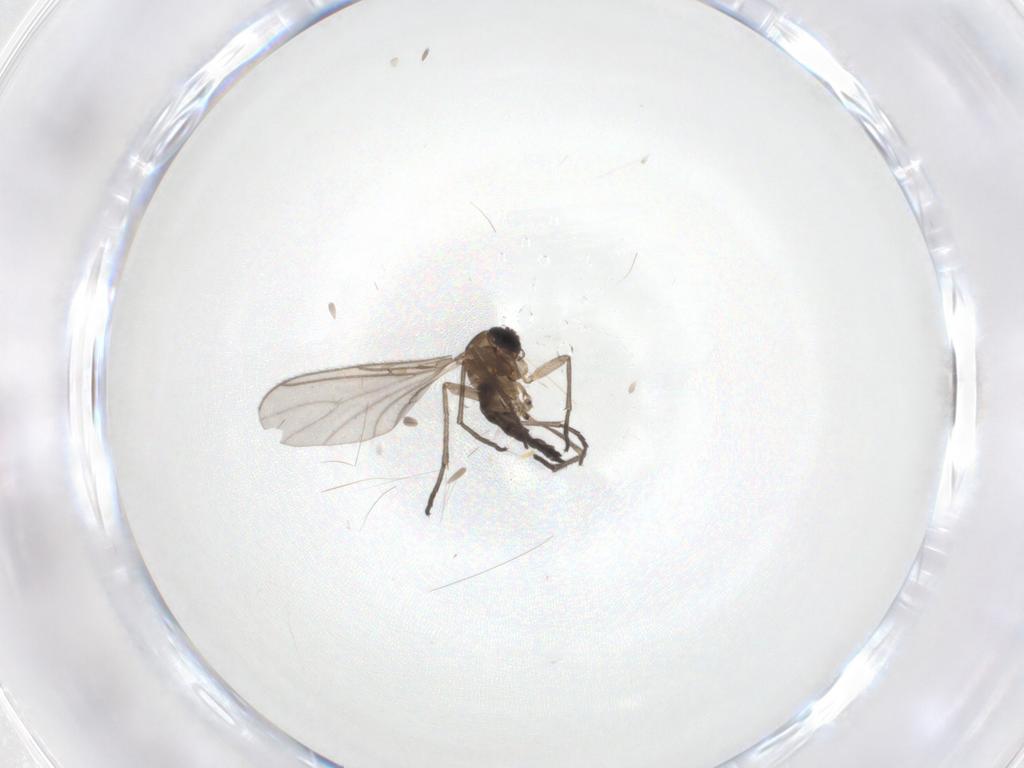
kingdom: Animalia
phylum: Arthropoda
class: Insecta
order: Diptera
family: Sciaridae
